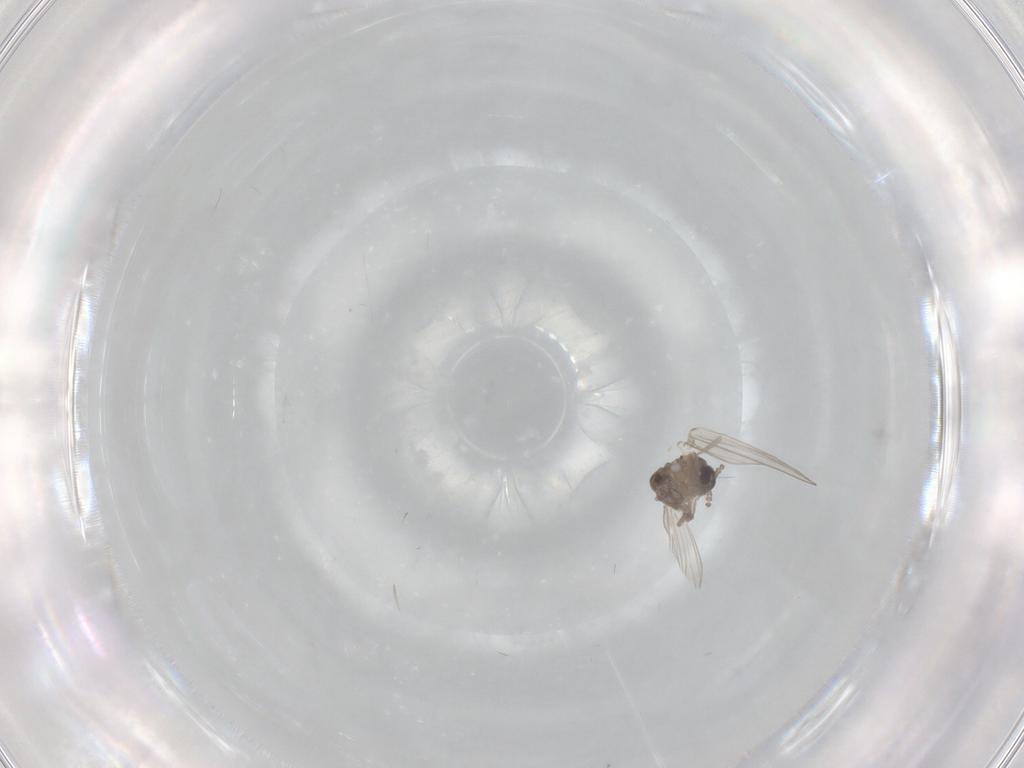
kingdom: Animalia
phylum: Arthropoda
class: Insecta
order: Diptera
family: Psychodidae
